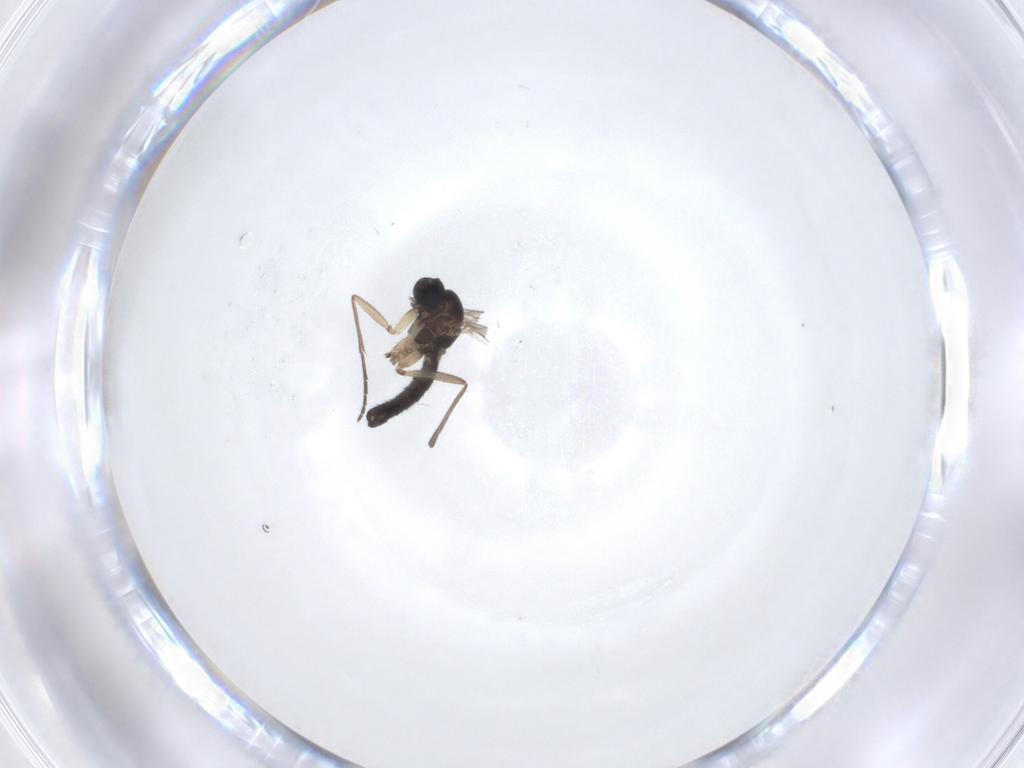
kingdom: Animalia
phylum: Arthropoda
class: Insecta
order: Diptera
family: Sciaridae
